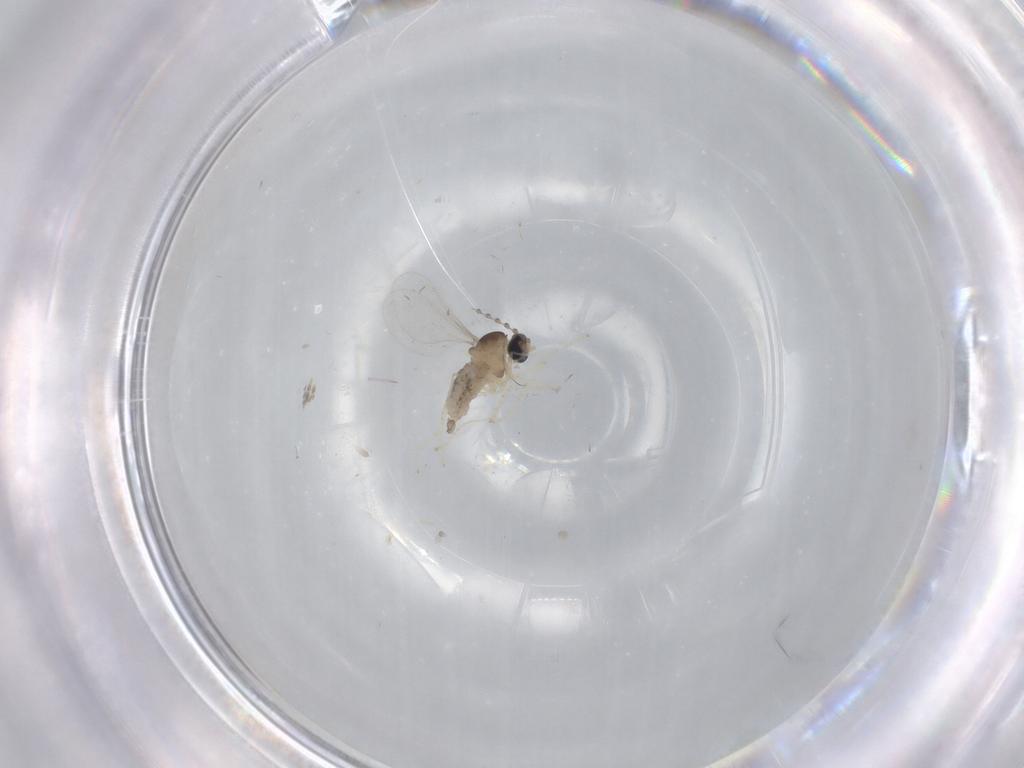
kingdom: Animalia
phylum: Arthropoda
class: Insecta
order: Diptera
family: Cecidomyiidae
